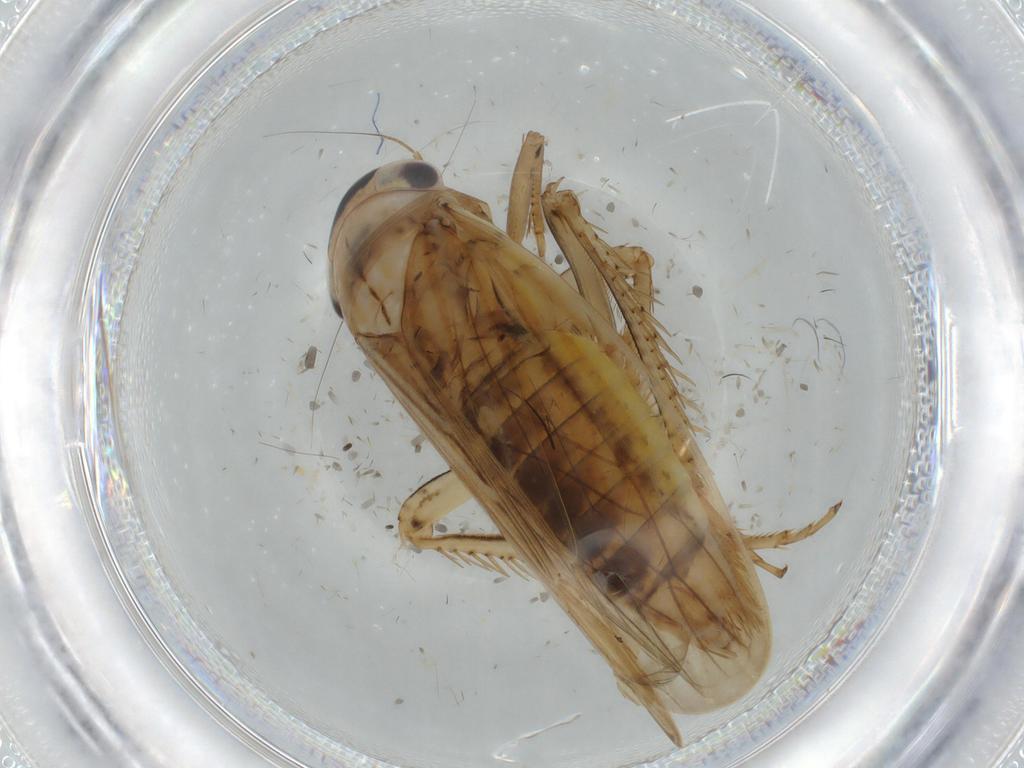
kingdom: Animalia
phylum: Arthropoda
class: Insecta
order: Hemiptera
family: Cicadellidae
